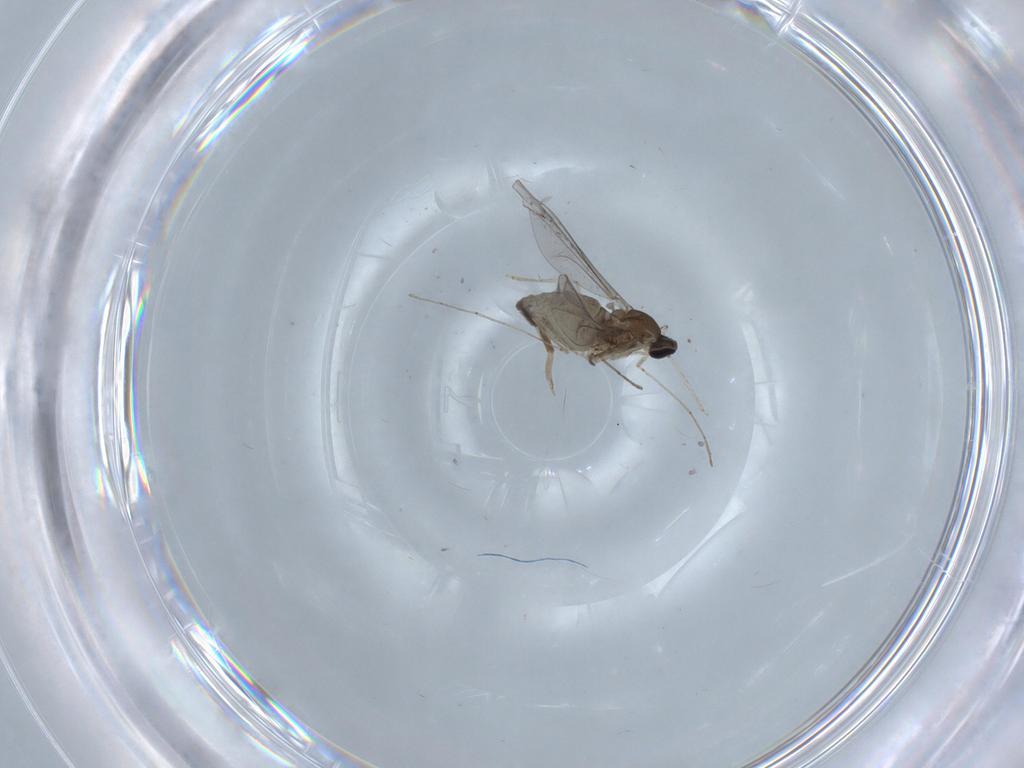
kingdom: Animalia
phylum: Arthropoda
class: Insecta
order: Diptera
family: Cecidomyiidae
